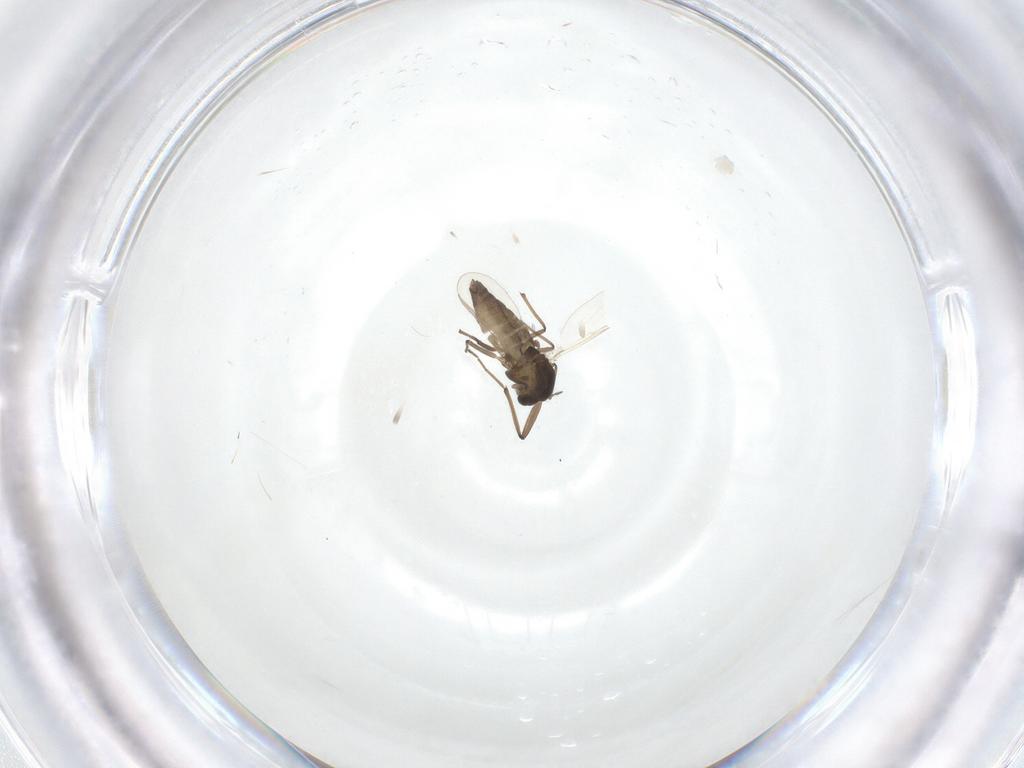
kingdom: Animalia
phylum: Arthropoda
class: Insecta
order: Diptera
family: Chironomidae
